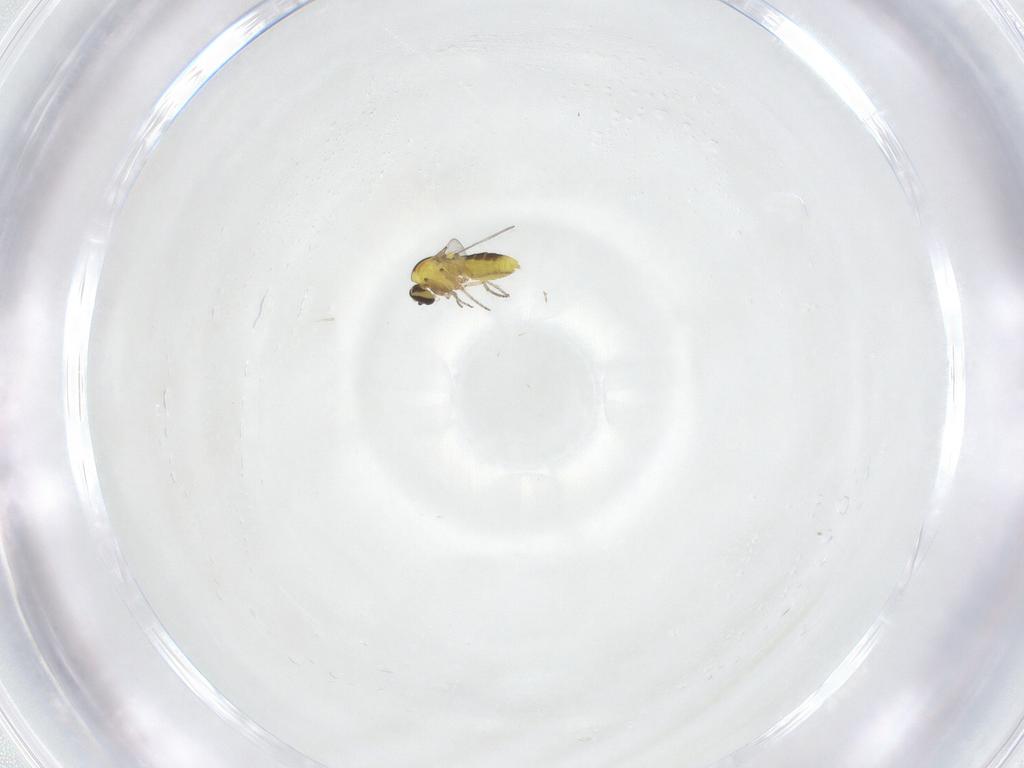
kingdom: Animalia
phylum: Arthropoda
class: Insecta
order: Diptera
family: Ceratopogonidae
